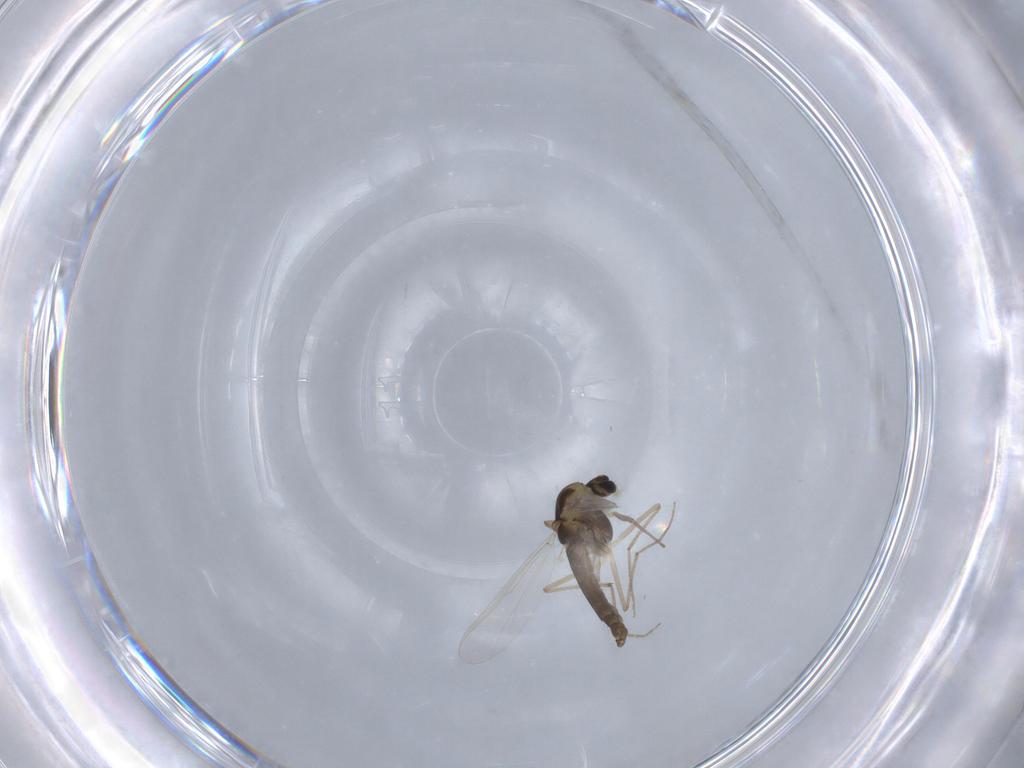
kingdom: Animalia
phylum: Arthropoda
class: Insecta
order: Diptera
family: Chironomidae
